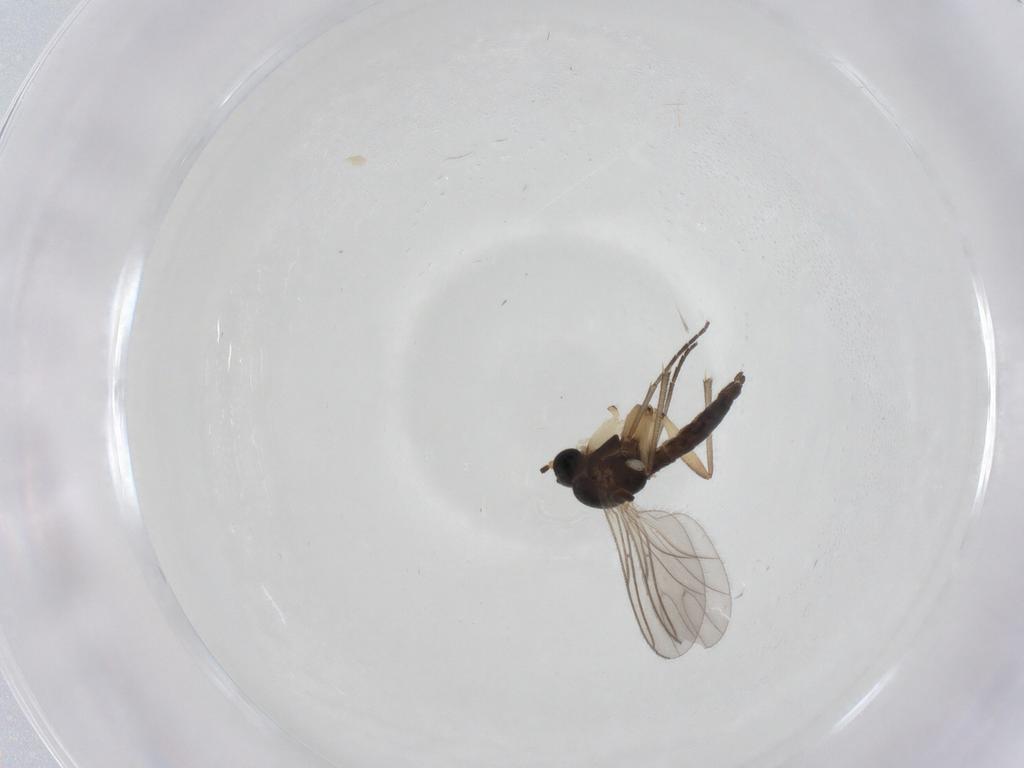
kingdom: Animalia
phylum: Arthropoda
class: Insecta
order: Diptera
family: Sciaridae
